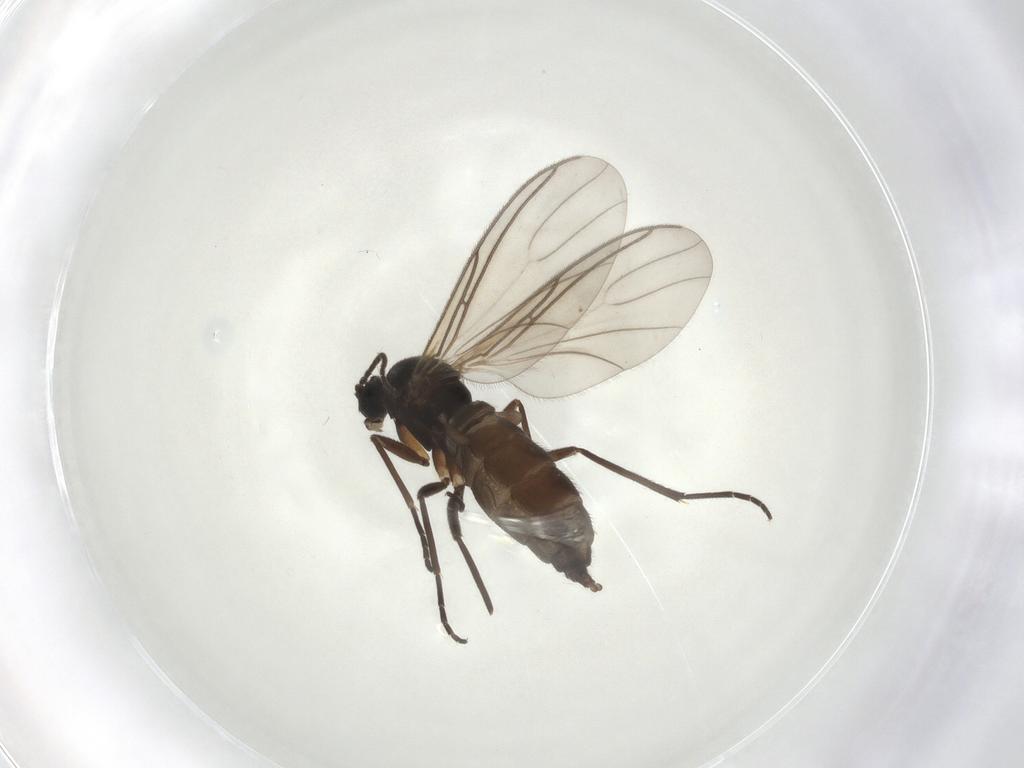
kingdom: Animalia
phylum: Arthropoda
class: Insecta
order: Diptera
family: Sciaridae
